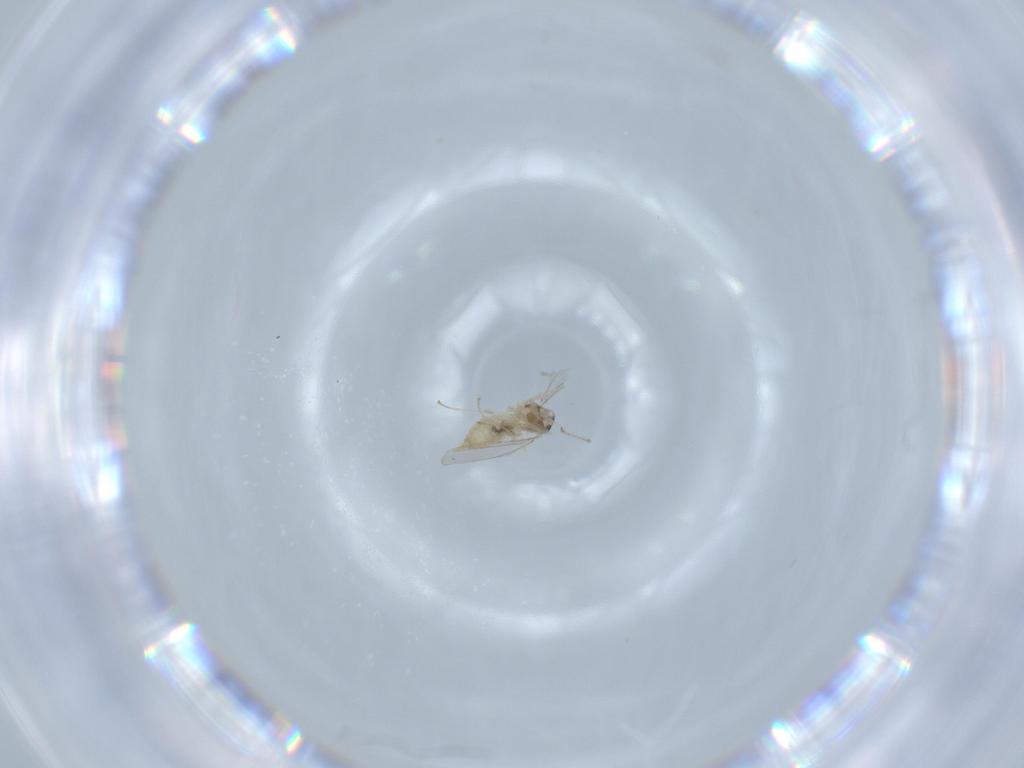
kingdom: Animalia
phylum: Arthropoda
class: Insecta
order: Diptera
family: Cecidomyiidae
